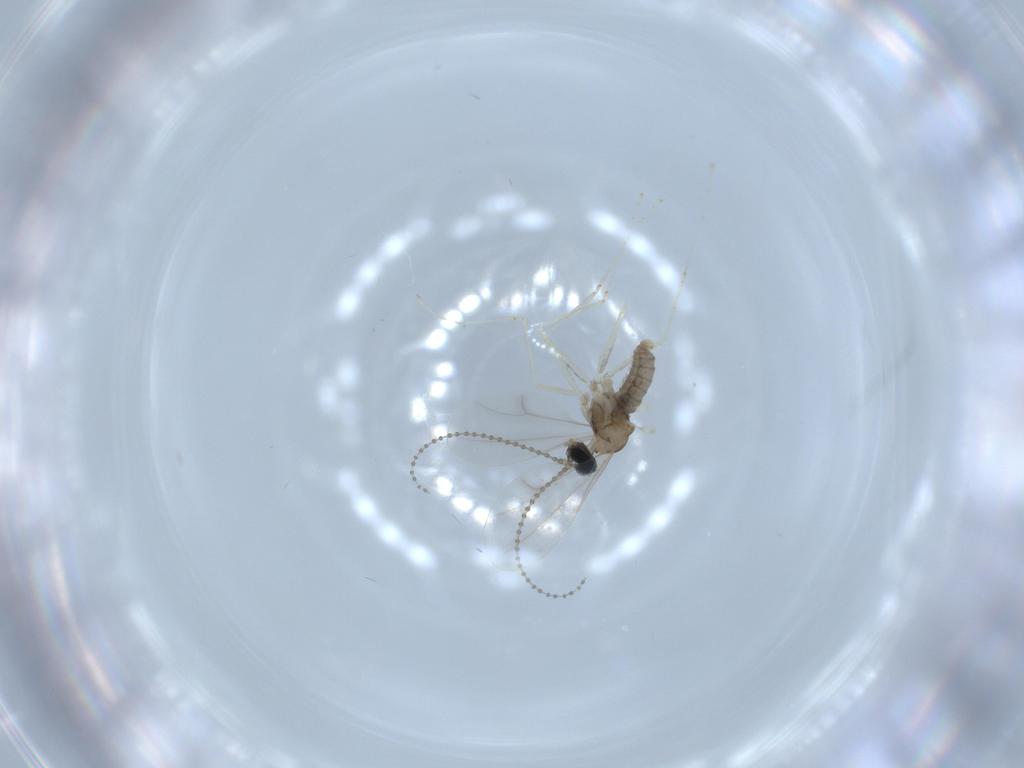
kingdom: Animalia
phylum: Arthropoda
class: Insecta
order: Diptera
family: Cecidomyiidae
